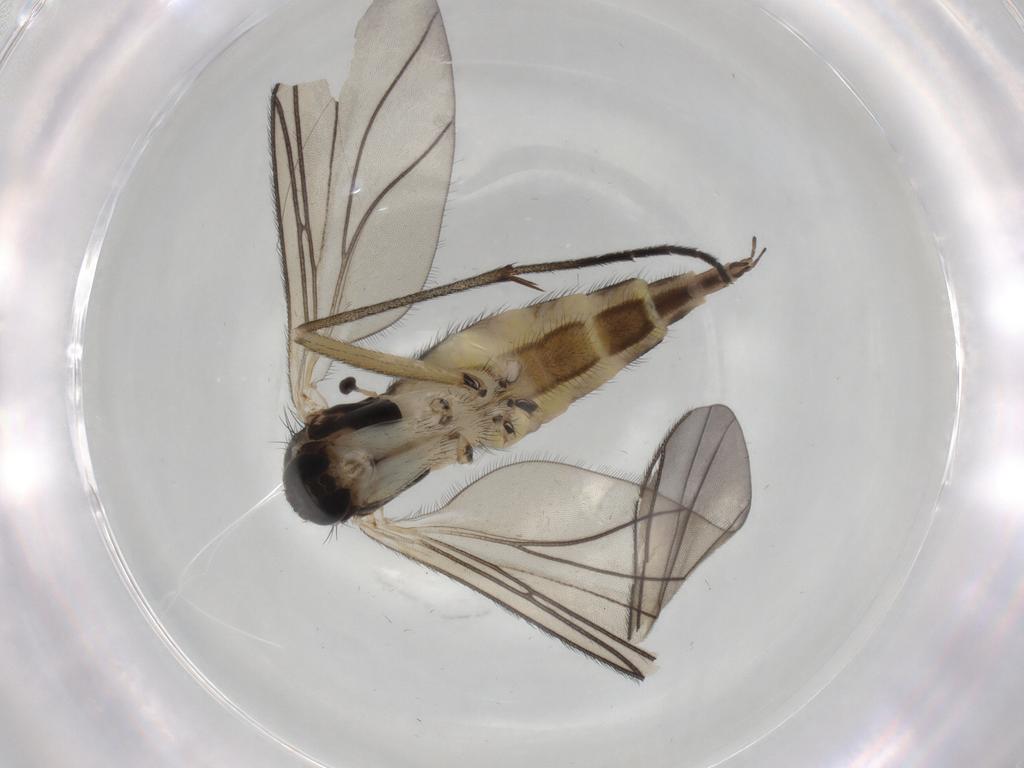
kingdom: Animalia
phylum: Arthropoda
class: Insecta
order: Diptera
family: Sciaridae
